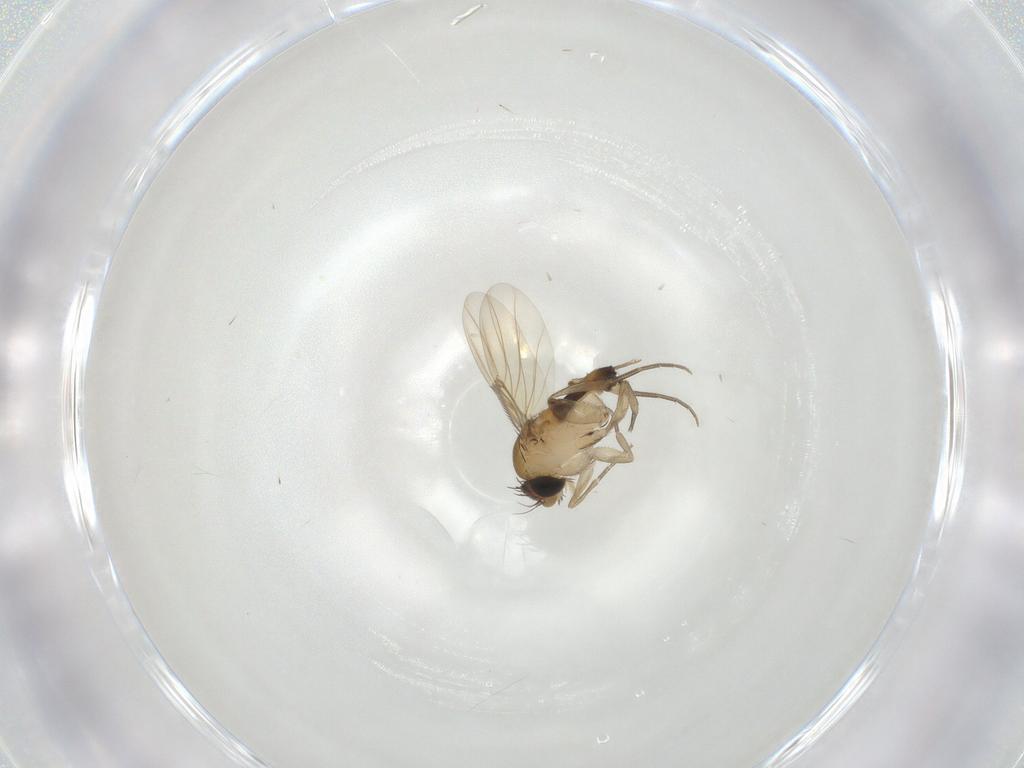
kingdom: Animalia
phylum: Arthropoda
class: Insecta
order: Diptera
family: Phoridae
